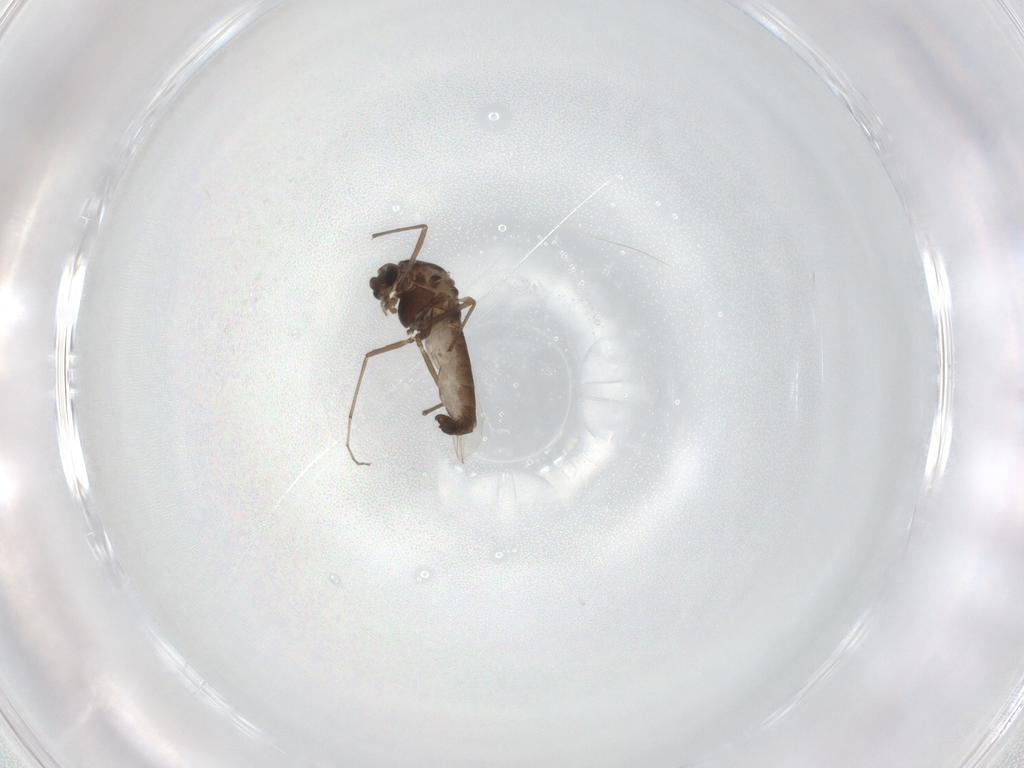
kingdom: Animalia
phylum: Arthropoda
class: Insecta
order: Diptera
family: Chironomidae
